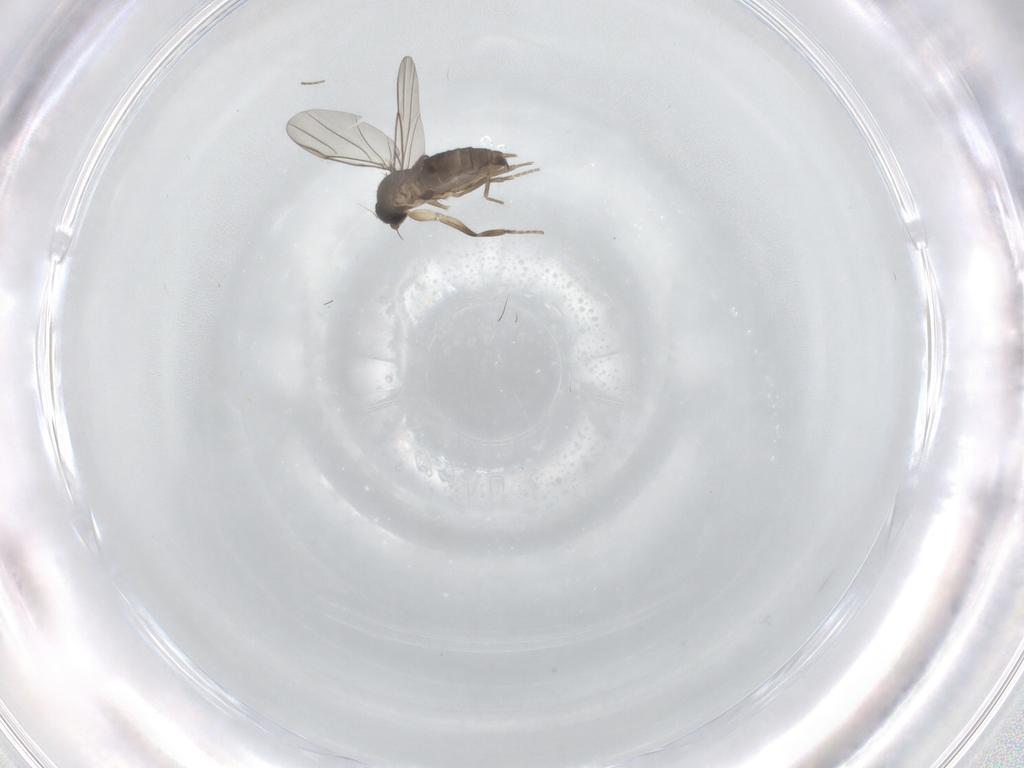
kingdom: Animalia
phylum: Arthropoda
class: Insecta
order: Diptera
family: Phoridae
